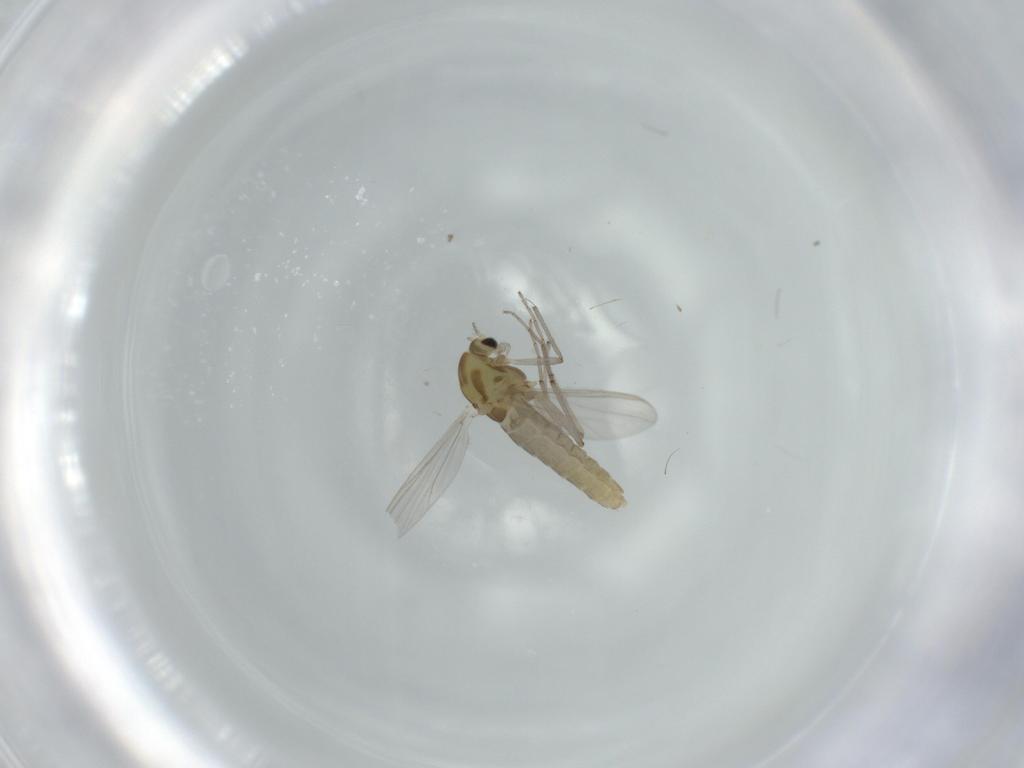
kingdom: Animalia
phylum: Arthropoda
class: Insecta
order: Diptera
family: Chironomidae
